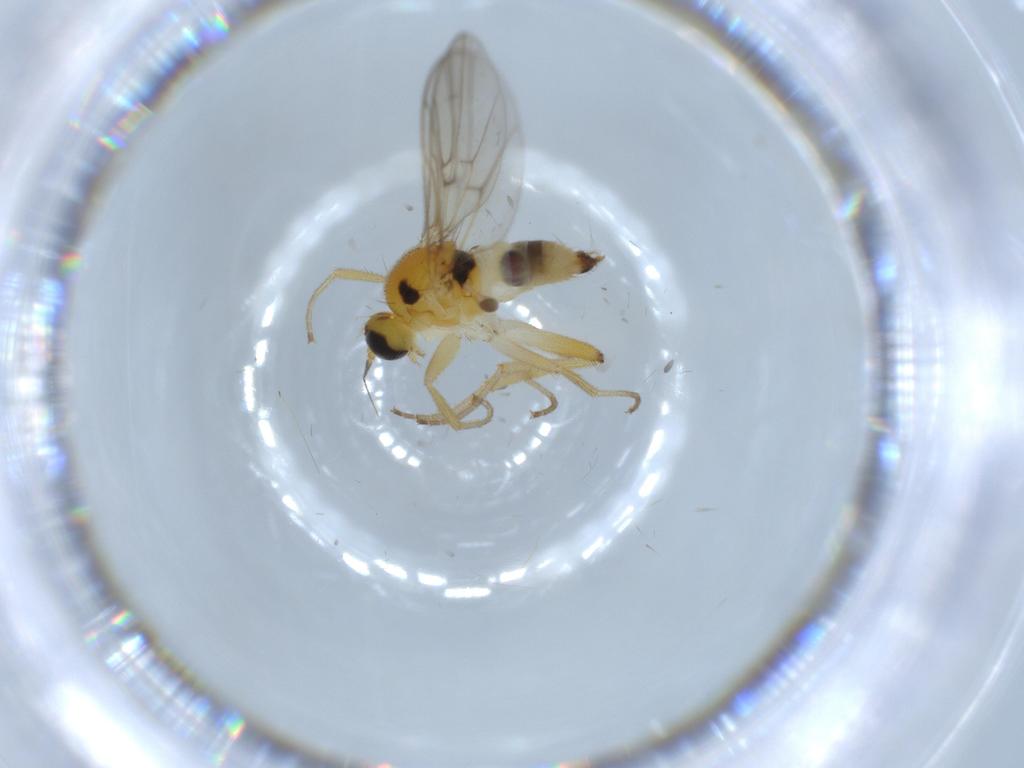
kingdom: Animalia
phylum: Arthropoda
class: Insecta
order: Diptera
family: Hybotidae
